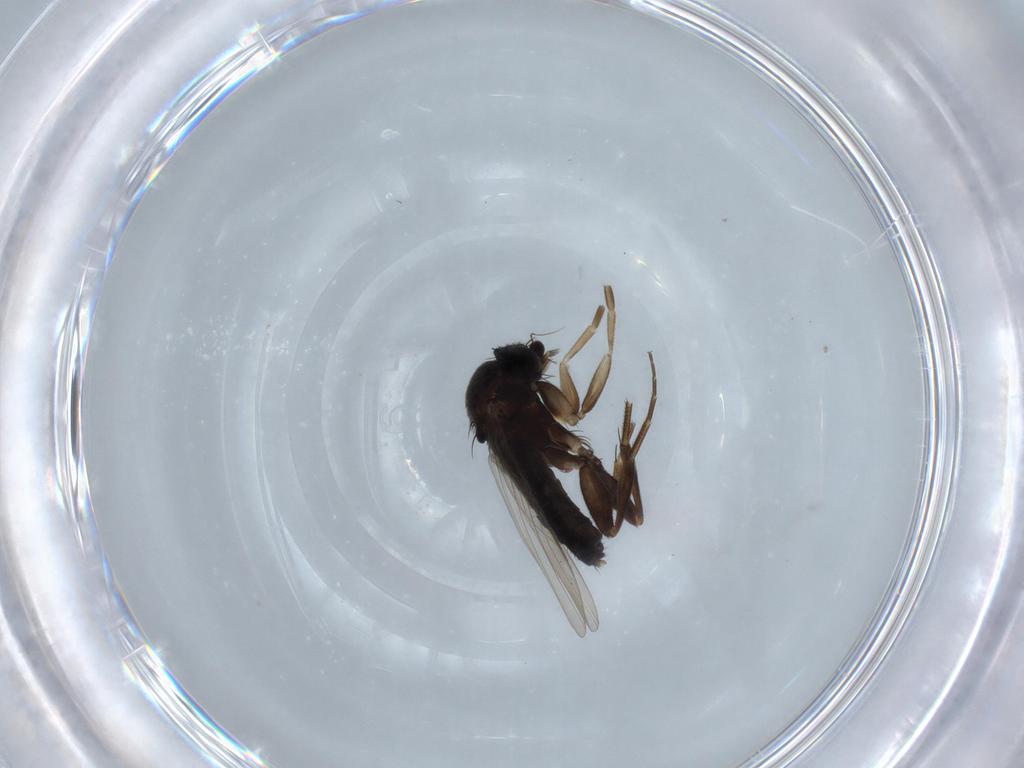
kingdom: Animalia
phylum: Arthropoda
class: Insecta
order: Diptera
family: Phoridae
